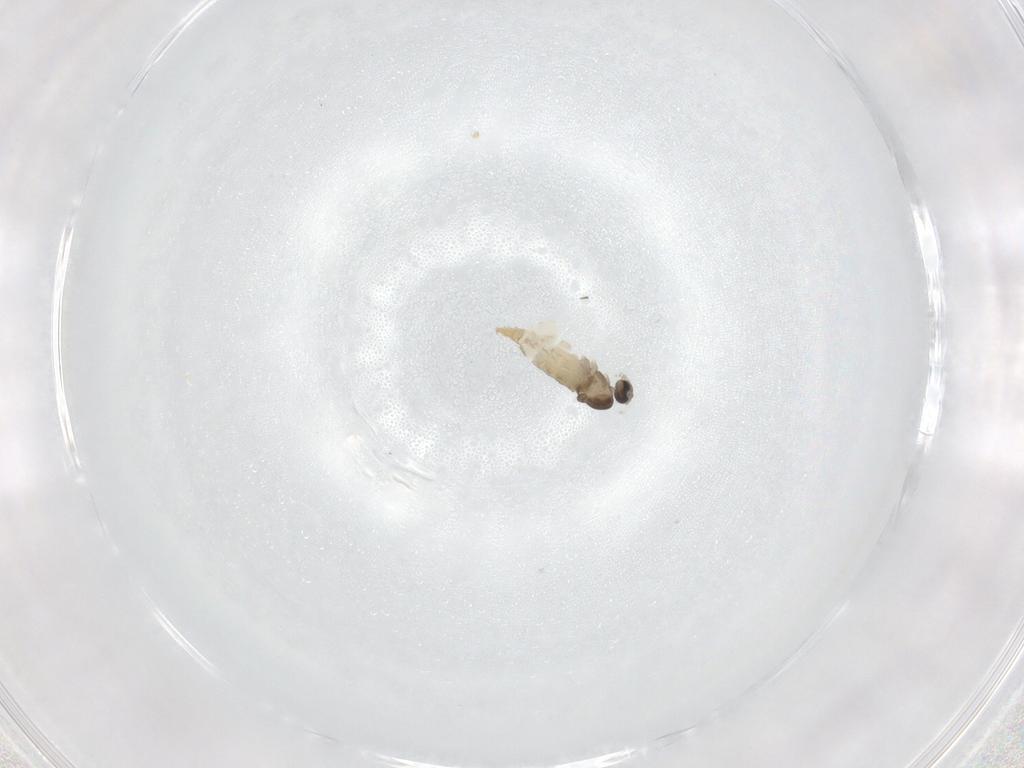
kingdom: Animalia
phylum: Arthropoda
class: Insecta
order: Diptera
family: Cecidomyiidae
